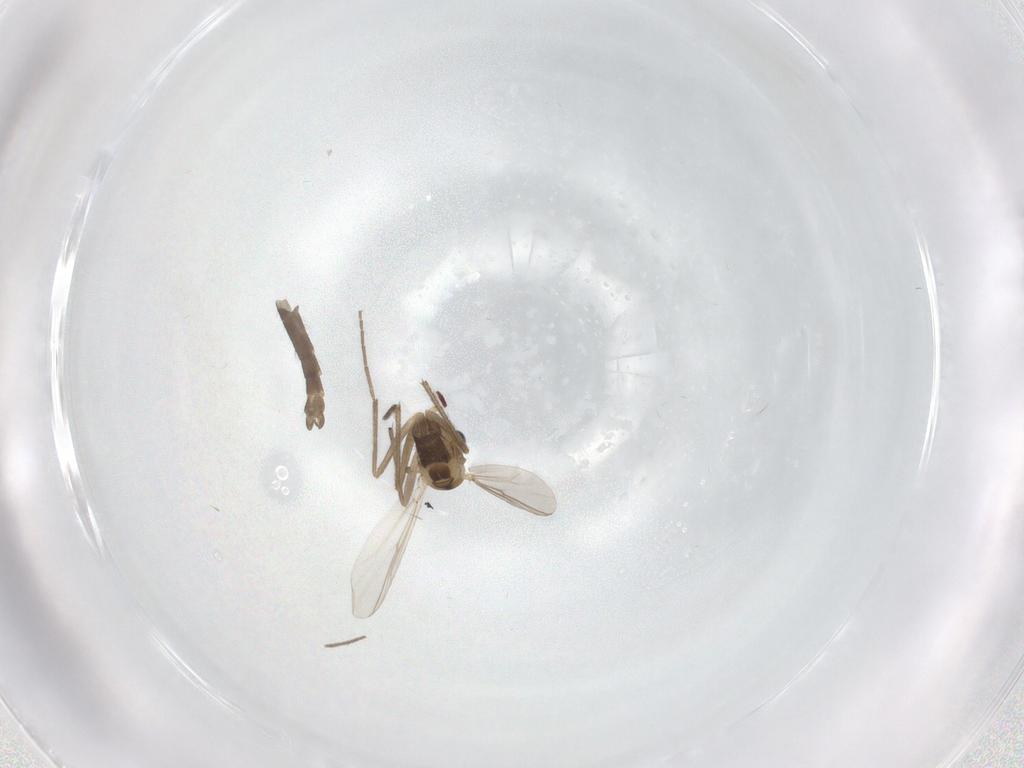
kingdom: Animalia
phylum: Arthropoda
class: Insecta
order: Diptera
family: Chironomidae
